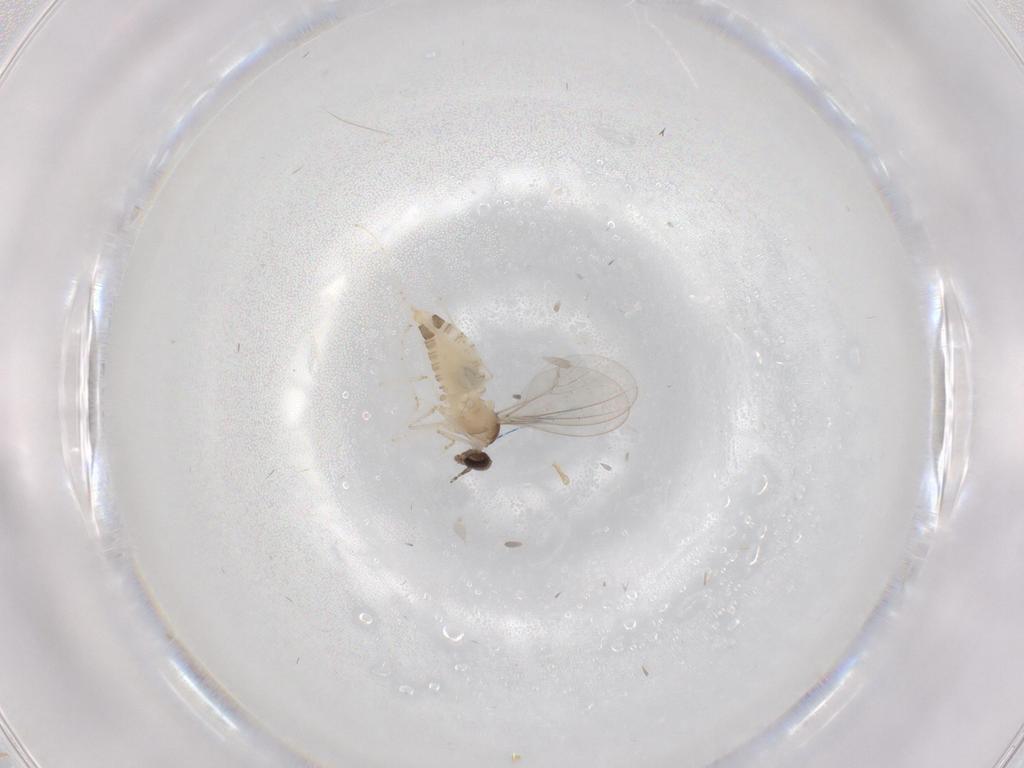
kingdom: Animalia
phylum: Arthropoda
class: Insecta
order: Diptera
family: Cecidomyiidae
